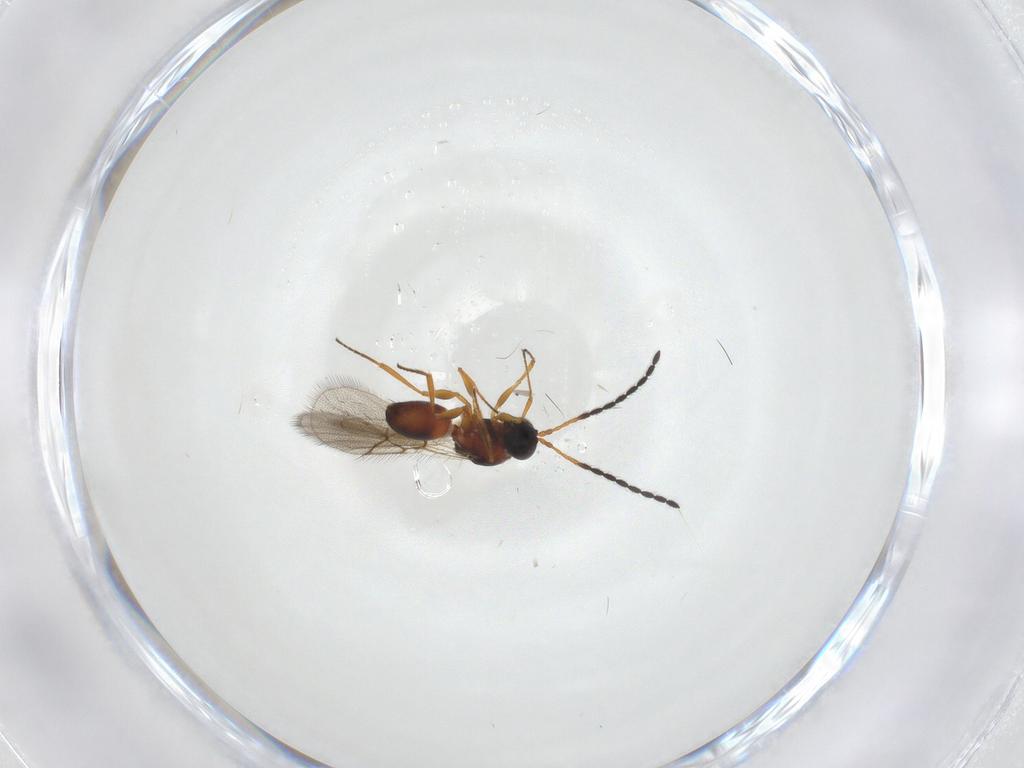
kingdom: Animalia
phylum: Arthropoda
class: Insecta
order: Hymenoptera
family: Figitidae
